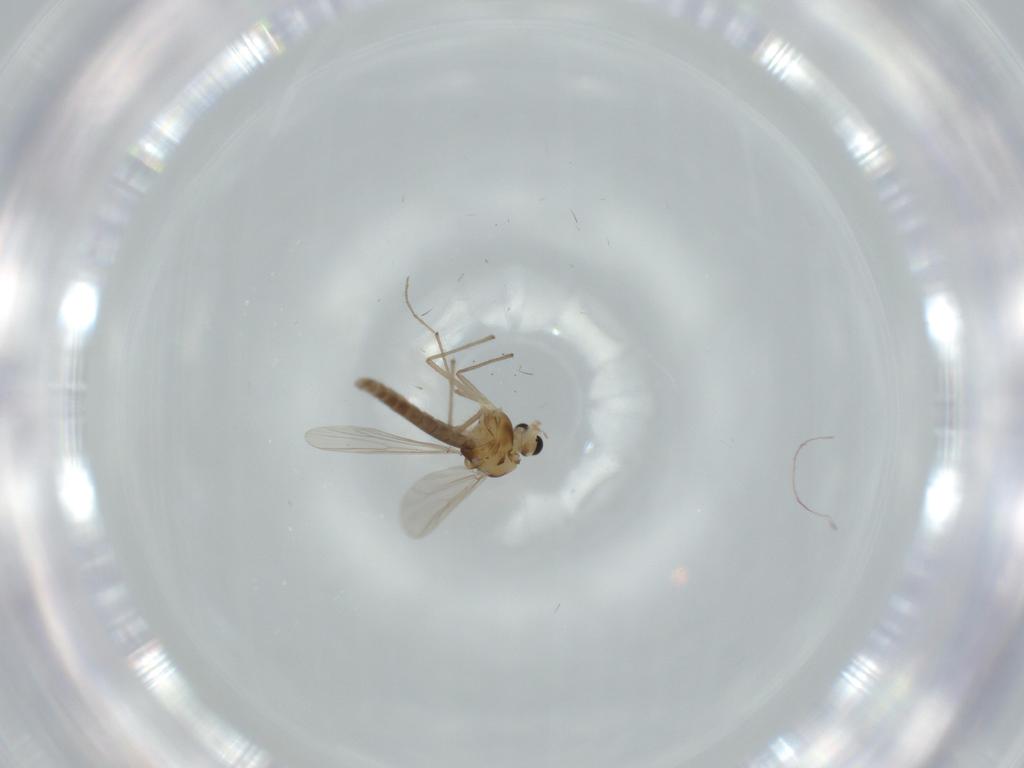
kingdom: Animalia
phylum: Arthropoda
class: Insecta
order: Diptera
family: Chironomidae
